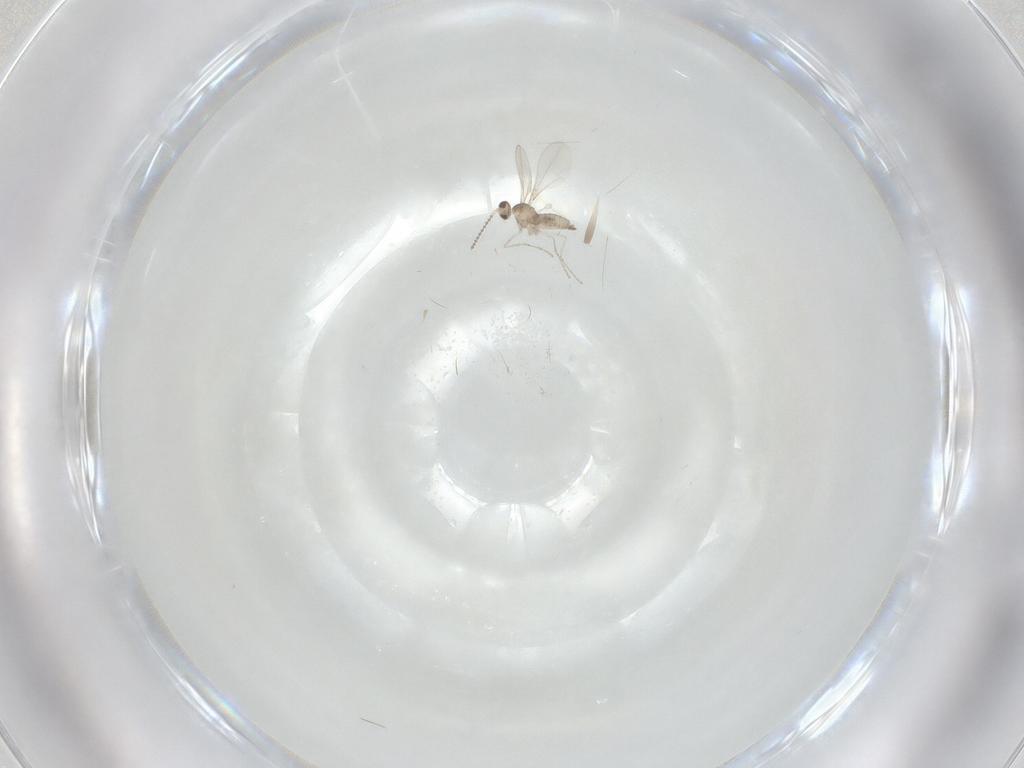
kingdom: Animalia
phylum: Arthropoda
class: Insecta
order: Diptera
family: Cecidomyiidae
